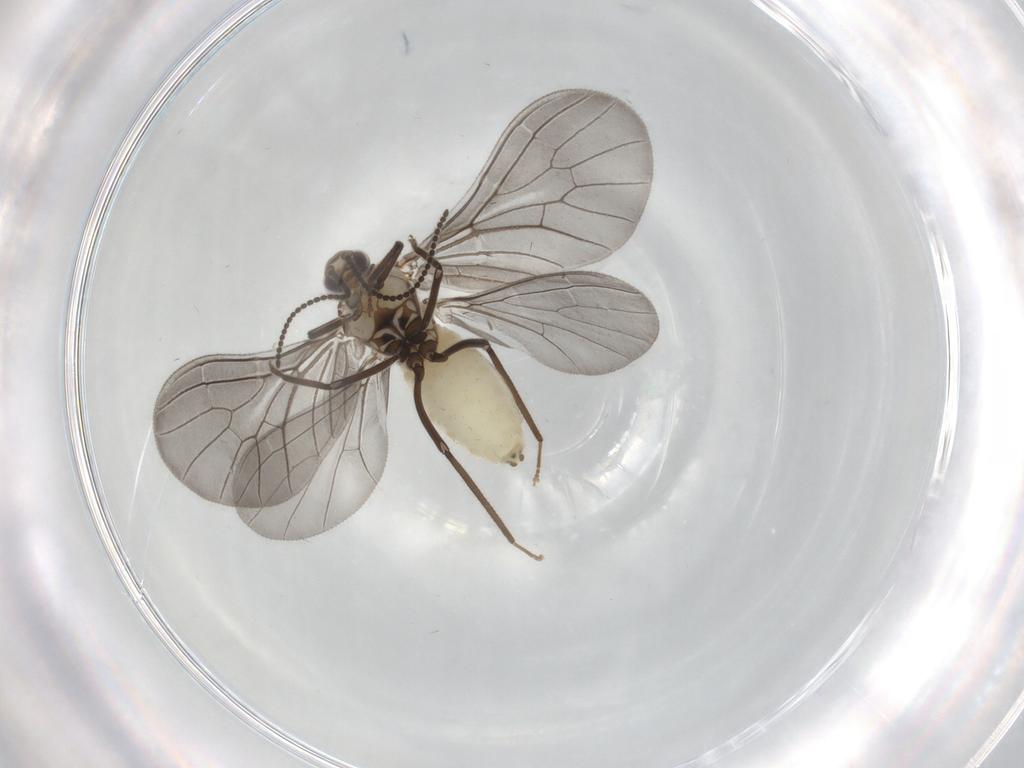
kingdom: Animalia
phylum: Arthropoda
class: Insecta
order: Neuroptera
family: Coniopterygidae
